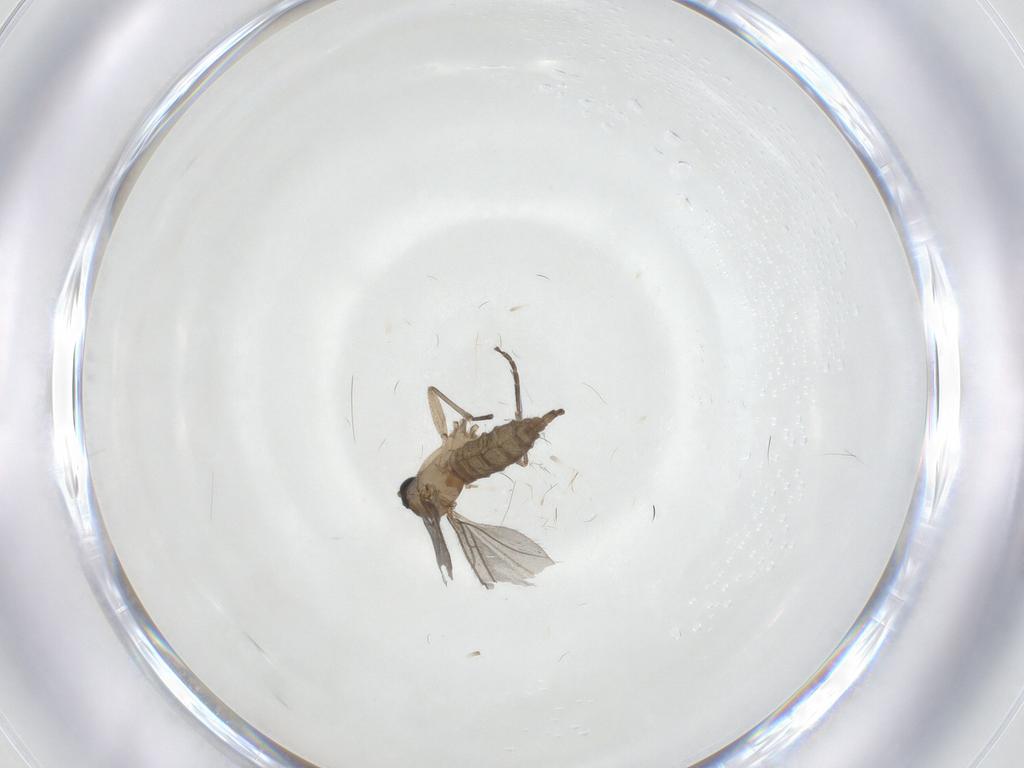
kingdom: Animalia
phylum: Arthropoda
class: Insecta
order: Diptera
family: Sciaridae
